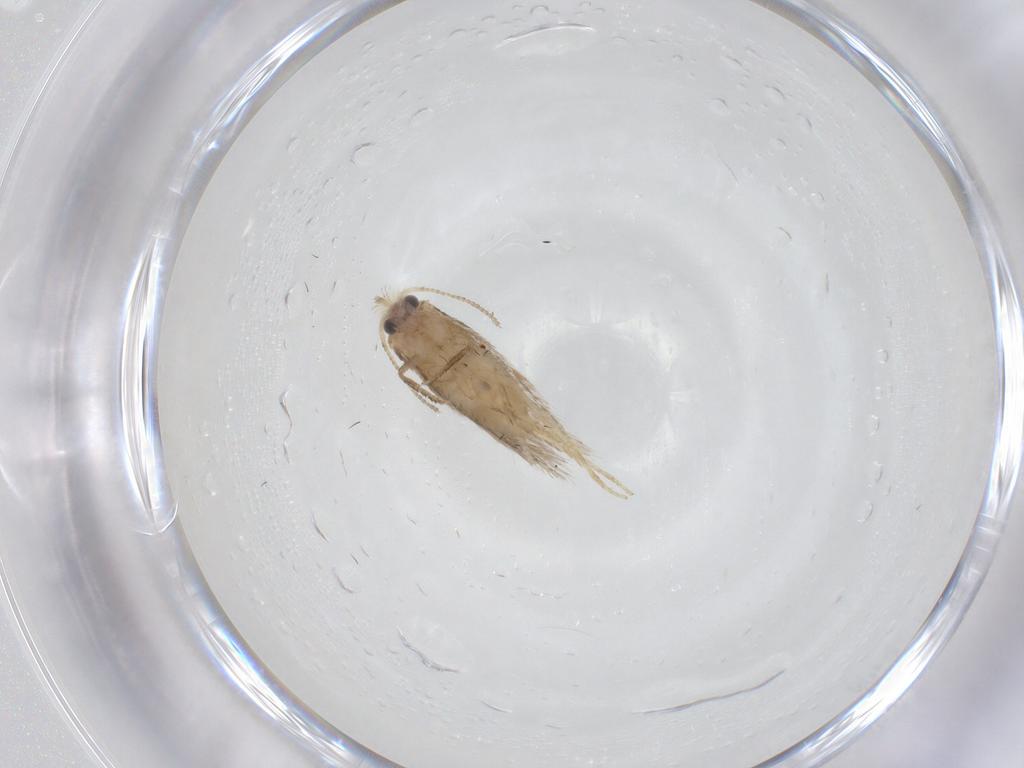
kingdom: Animalia
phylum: Arthropoda
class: Insecta
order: Lepidoptera
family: Nepticulidae
